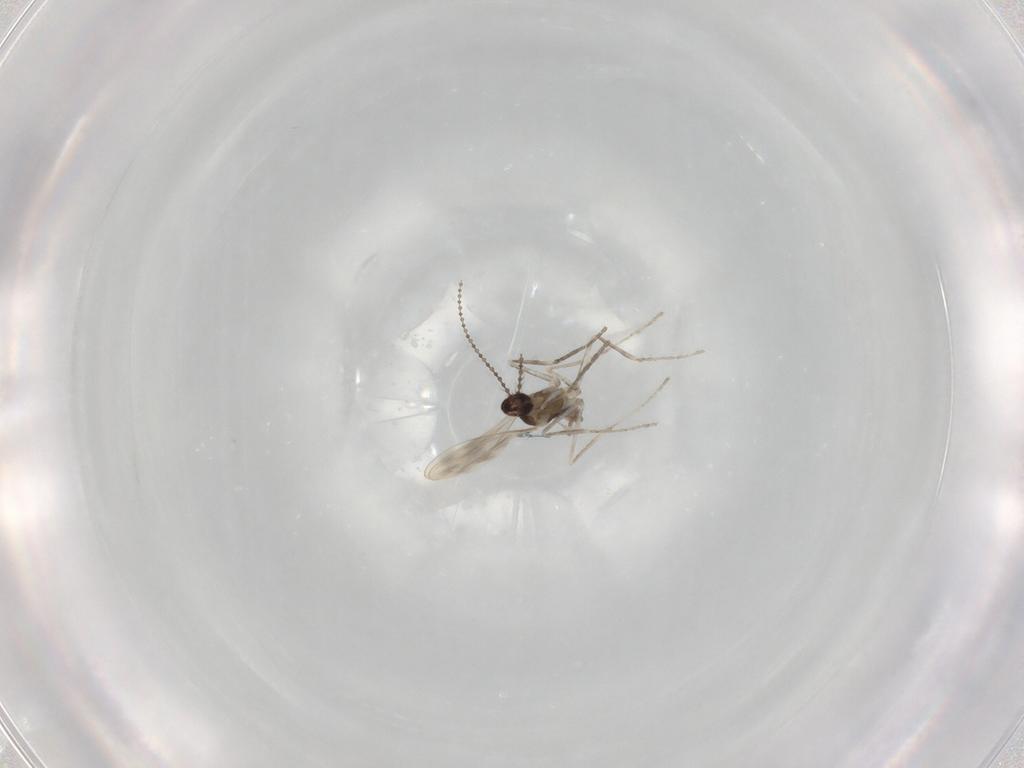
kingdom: Animalia
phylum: Arthropoda
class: Insecta
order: Diptera
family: Cecidomyiidae
